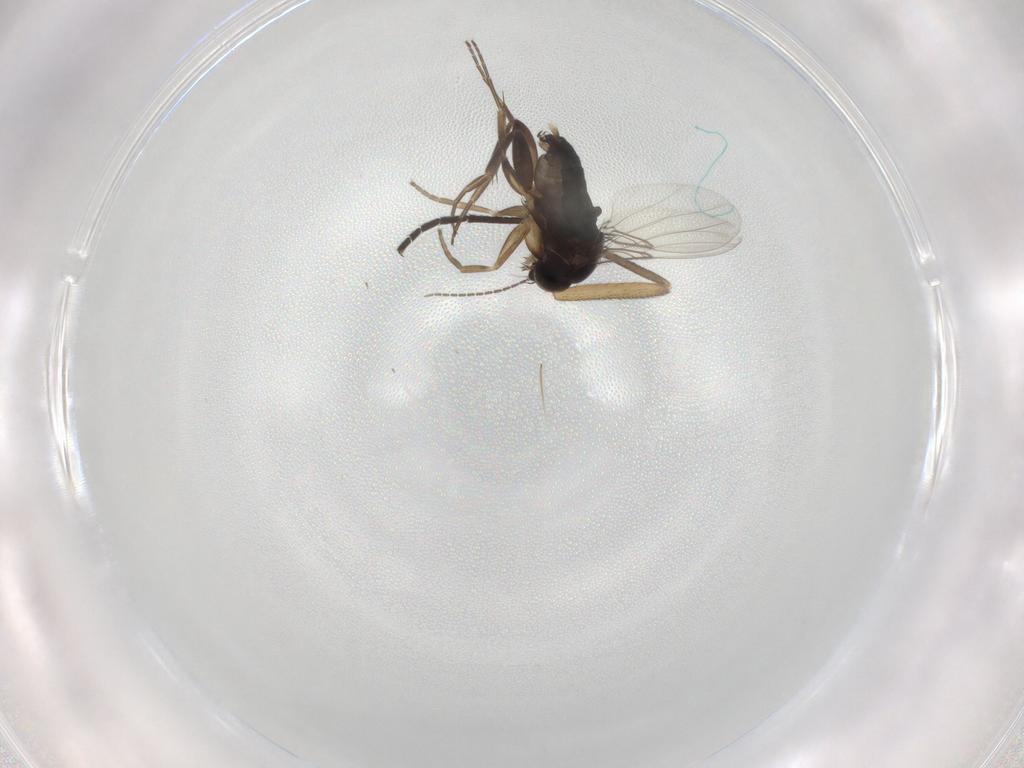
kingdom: Animalia
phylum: Arthropoda
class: Insecta
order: Diptera
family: Phoridae
